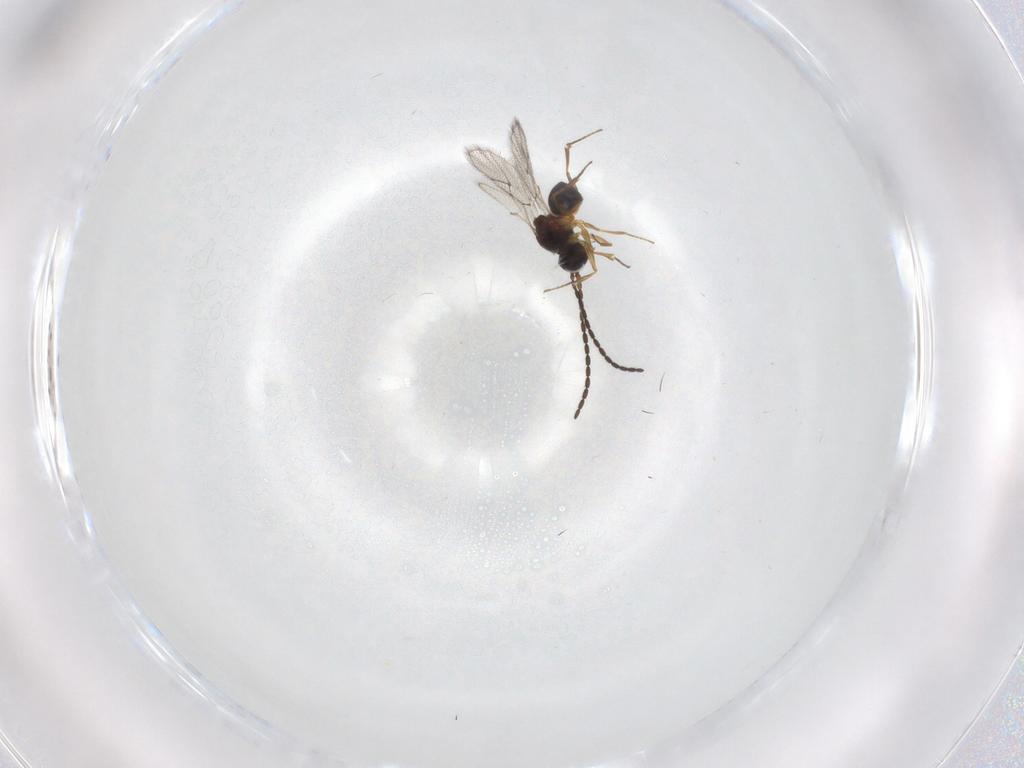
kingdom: Animalia
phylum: Arthropoda
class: Insecta
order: Hymenoptera
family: Figitidae
